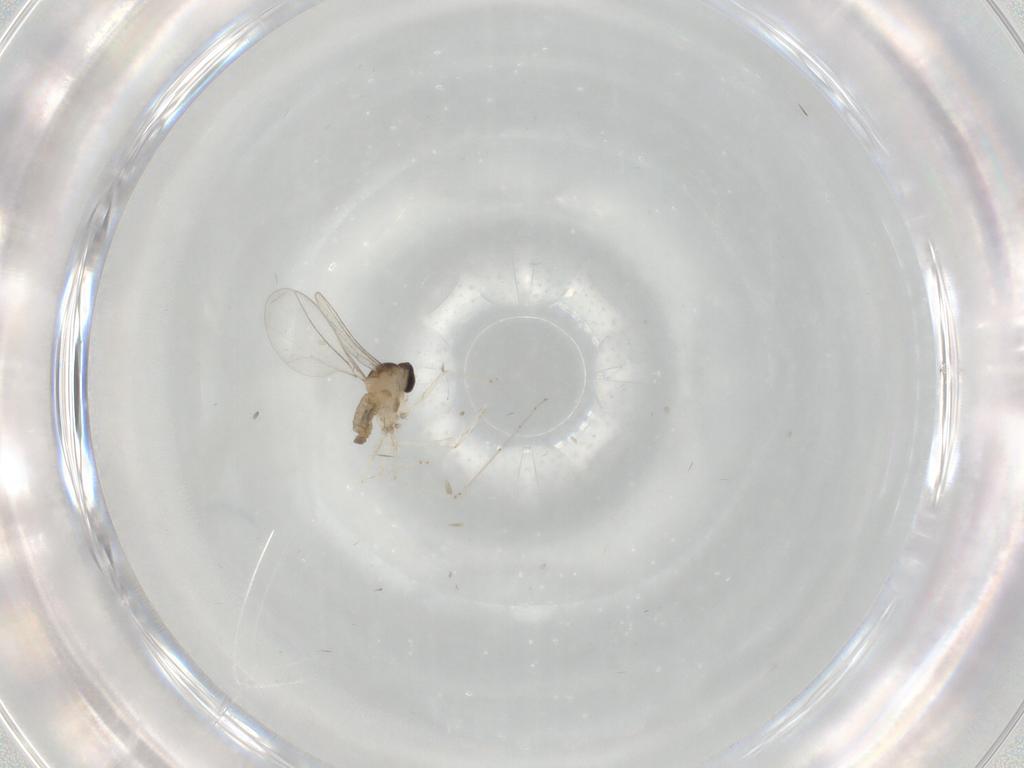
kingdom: Animalia
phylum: Arthropoda
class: Insecta
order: Diptera
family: Cecidomyiidae
